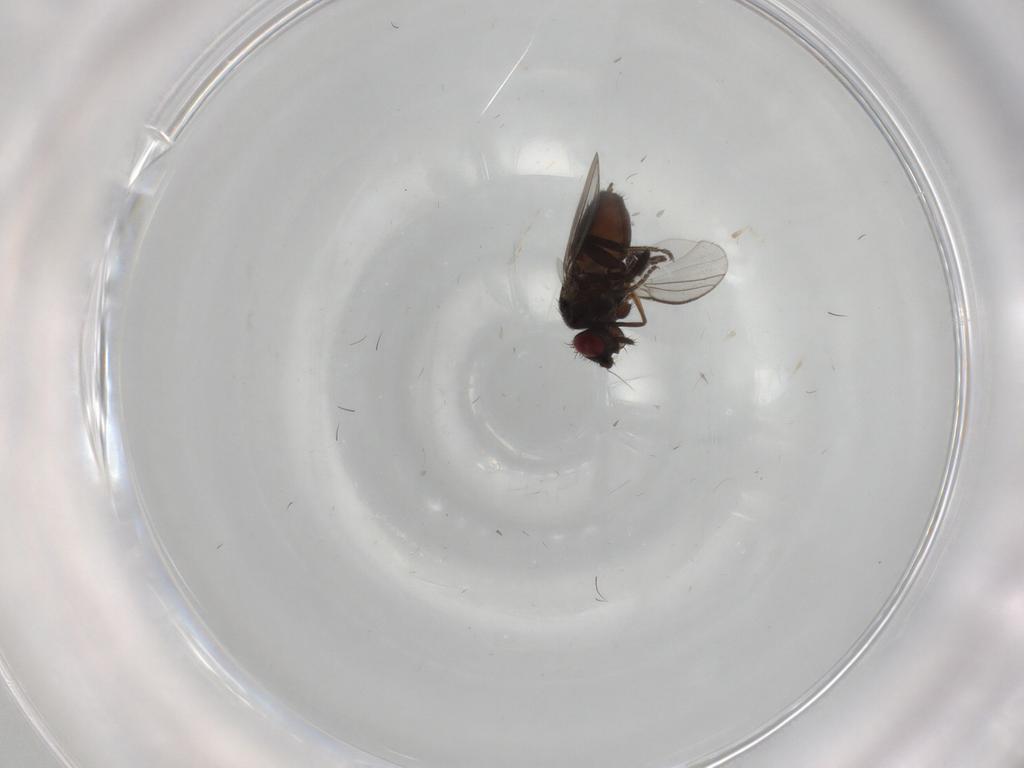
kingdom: Animalia
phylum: Arthropoda
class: Insecta
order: Diptera
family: Milichiidae
